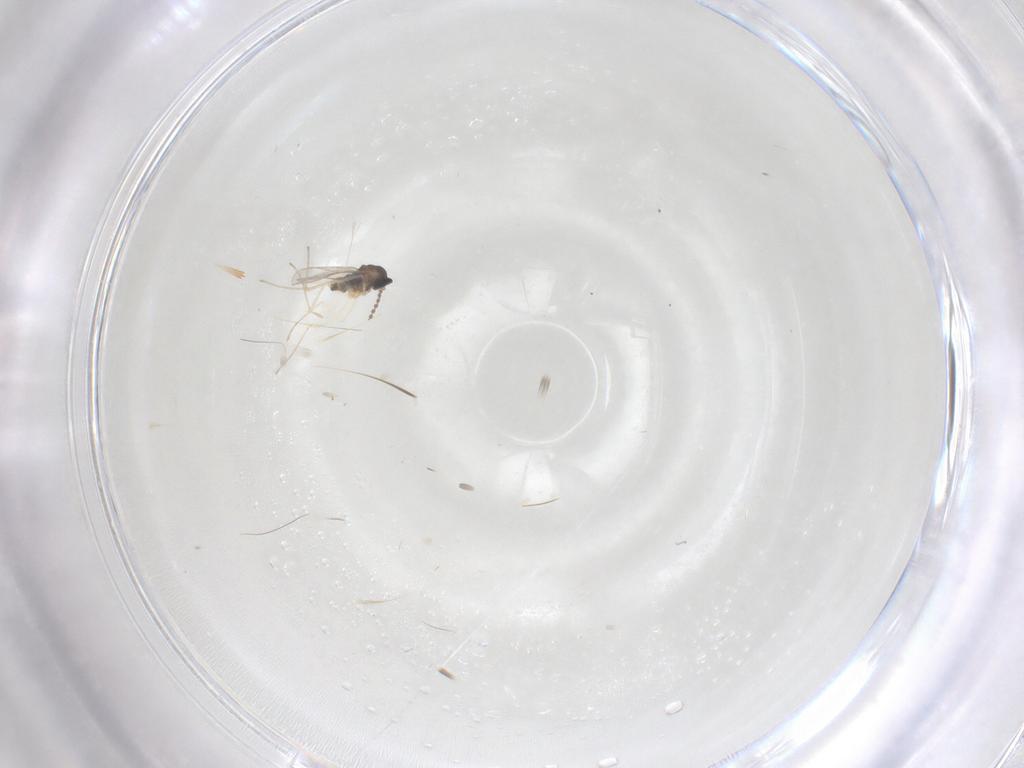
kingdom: Animalia
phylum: Arthropoda
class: Insecta
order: Diptera
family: Cecidomyiidae
